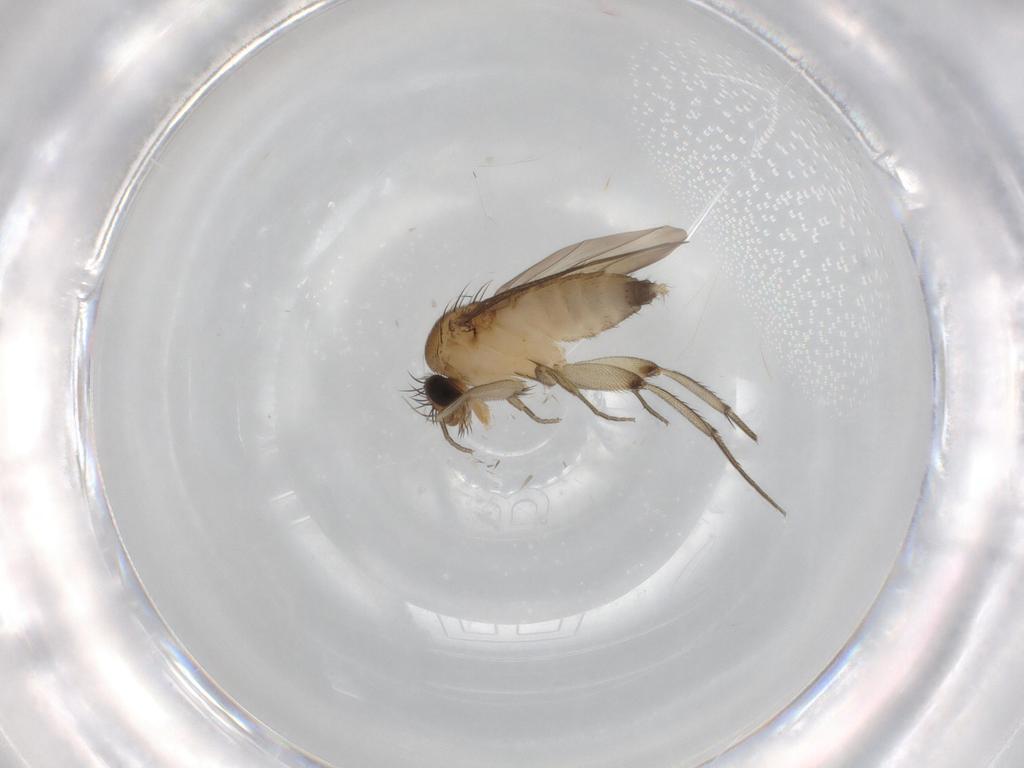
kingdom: Animalia
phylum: Arthropoda
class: Insecta
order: Diptera
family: Phoridae
